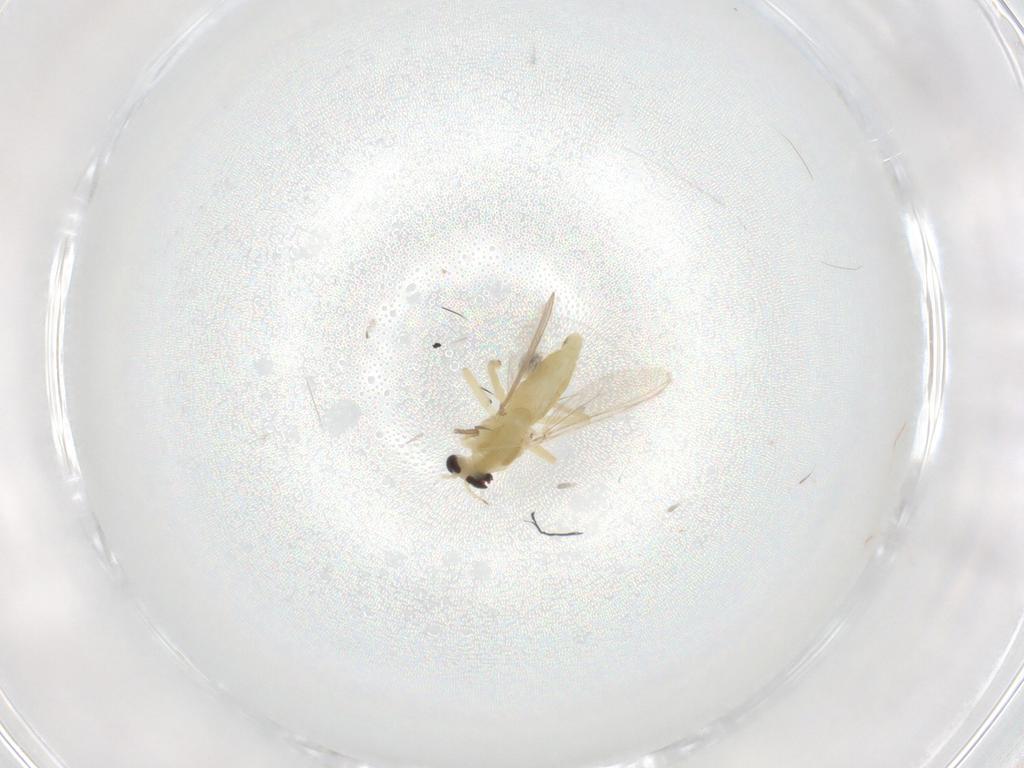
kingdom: Animalia
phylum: Arthropoda
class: Insecta
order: Diptera
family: Chironomidae
